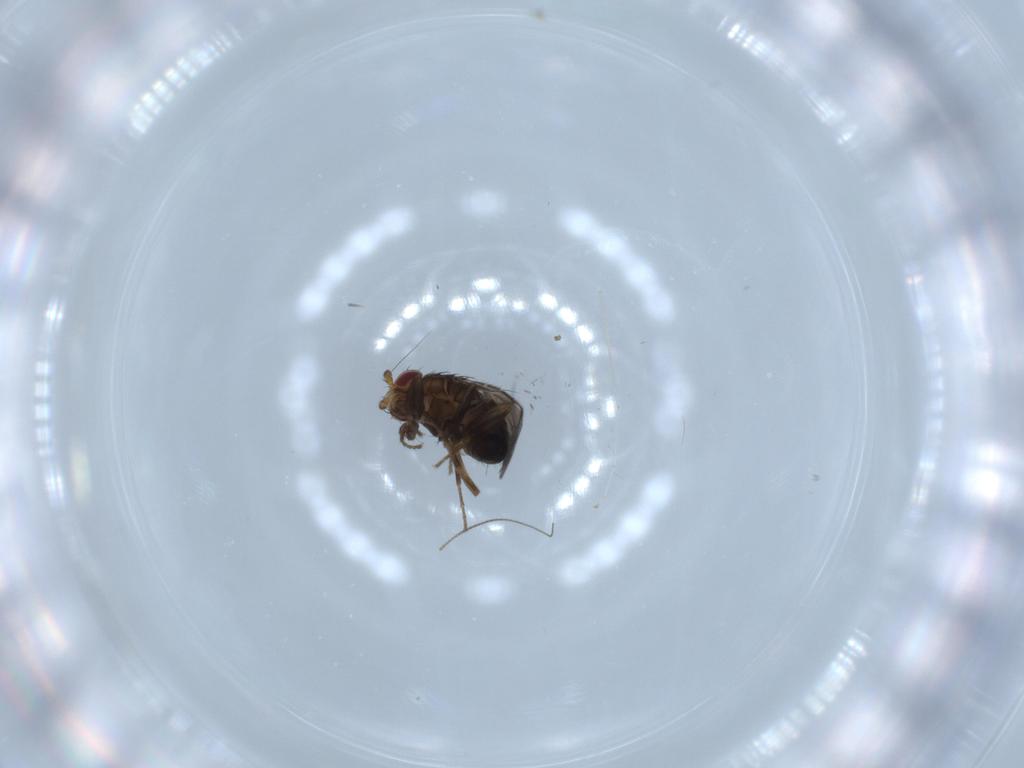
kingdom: Animalia
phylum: Arthropoda
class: Insecta
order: Diptera
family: Sphaeroceridae
